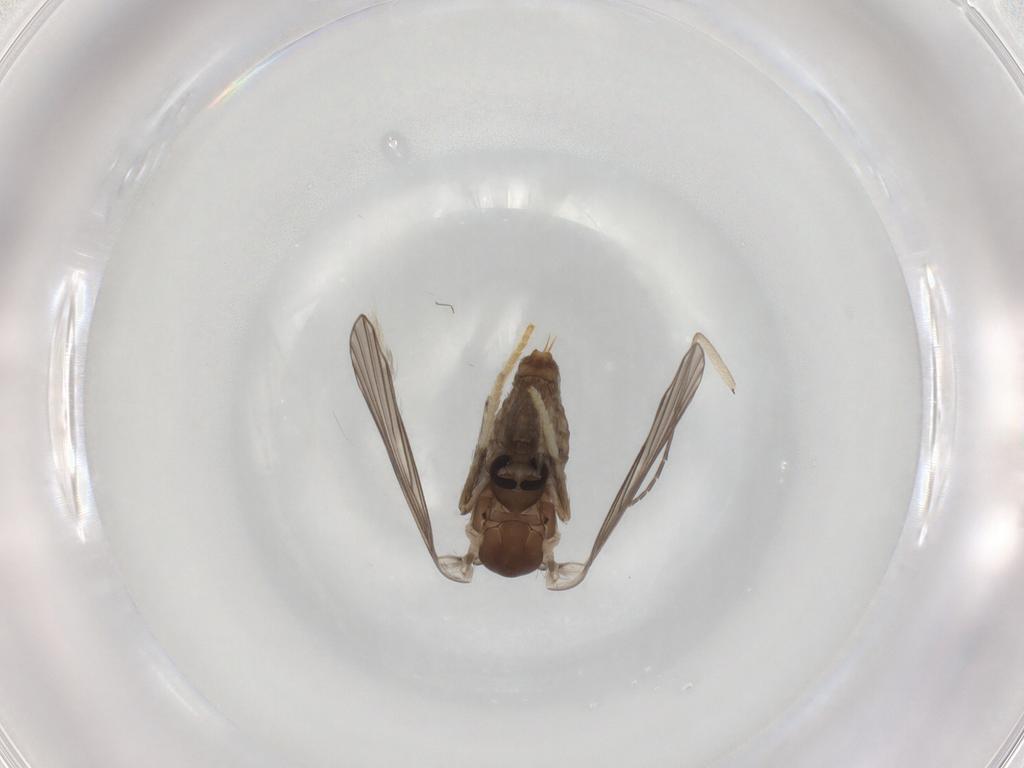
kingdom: Animalia
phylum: Arthropoda
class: Insecta
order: Diptera
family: Psychodidae
